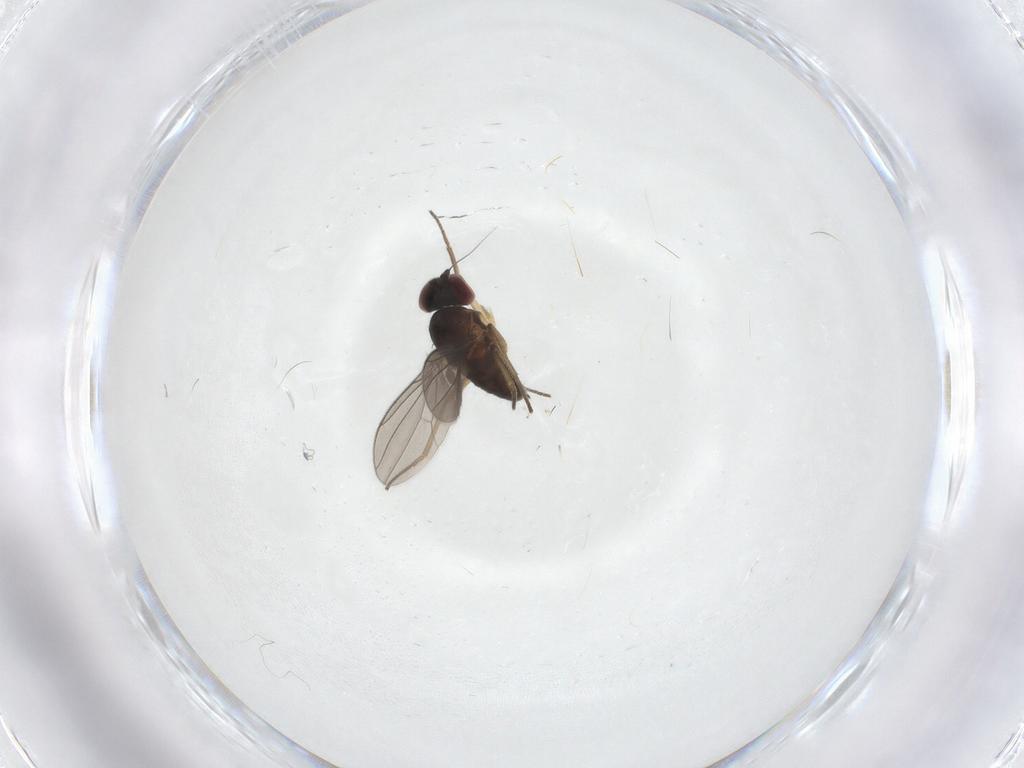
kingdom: Animalia
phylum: Arthropoda
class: Insecta
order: Diptera
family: Dolichopodidae
